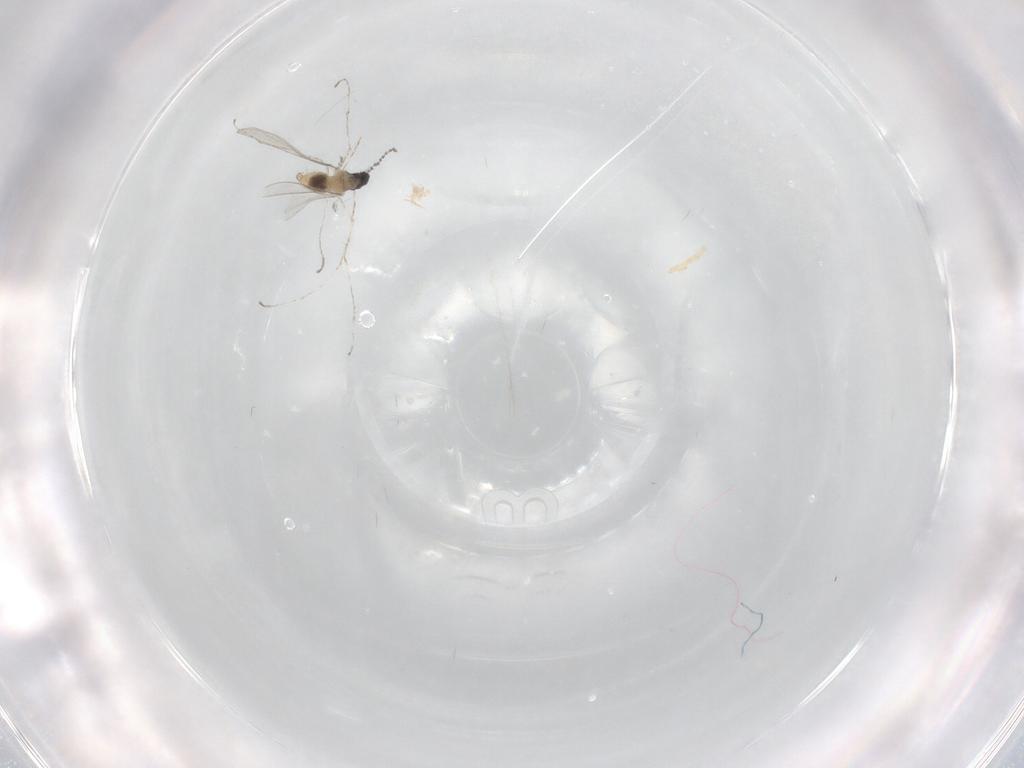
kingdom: Animalia
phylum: Arthropoda
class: Insecta
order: Diptera
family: Cecidomyiidae
